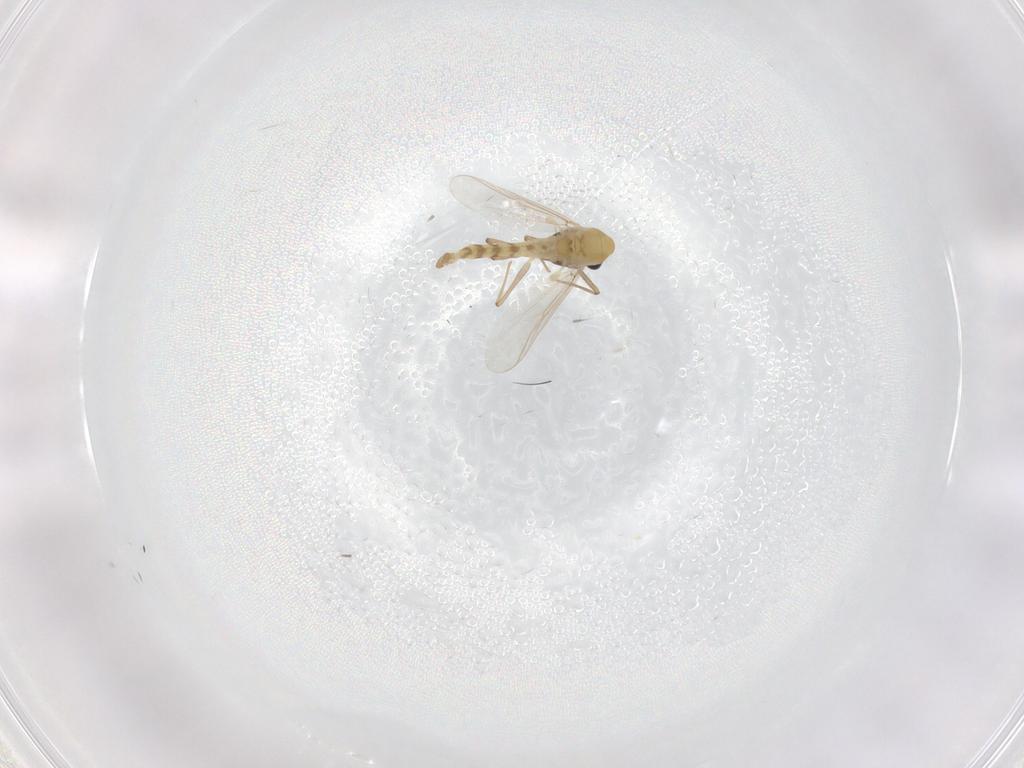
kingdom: Animalia
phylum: Arthropoda
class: Insecta
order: Diptera
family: Chironomidae
